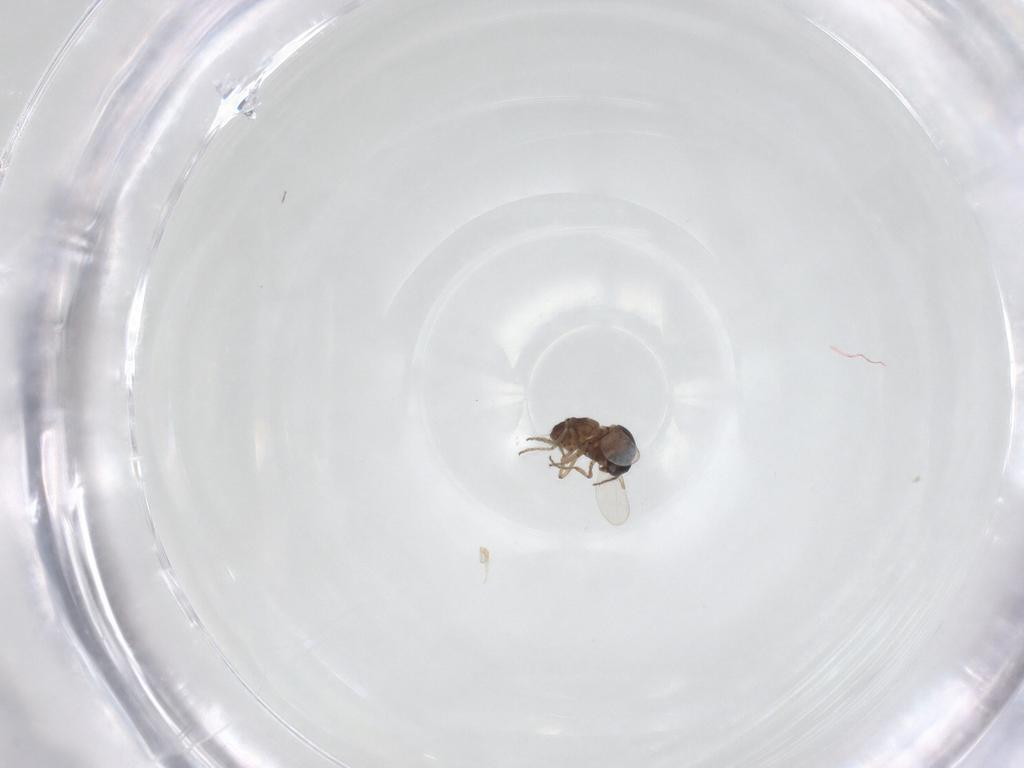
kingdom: Animalia
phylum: Arthropoda
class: Insecta
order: Diptera
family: Ceratopogonidae
